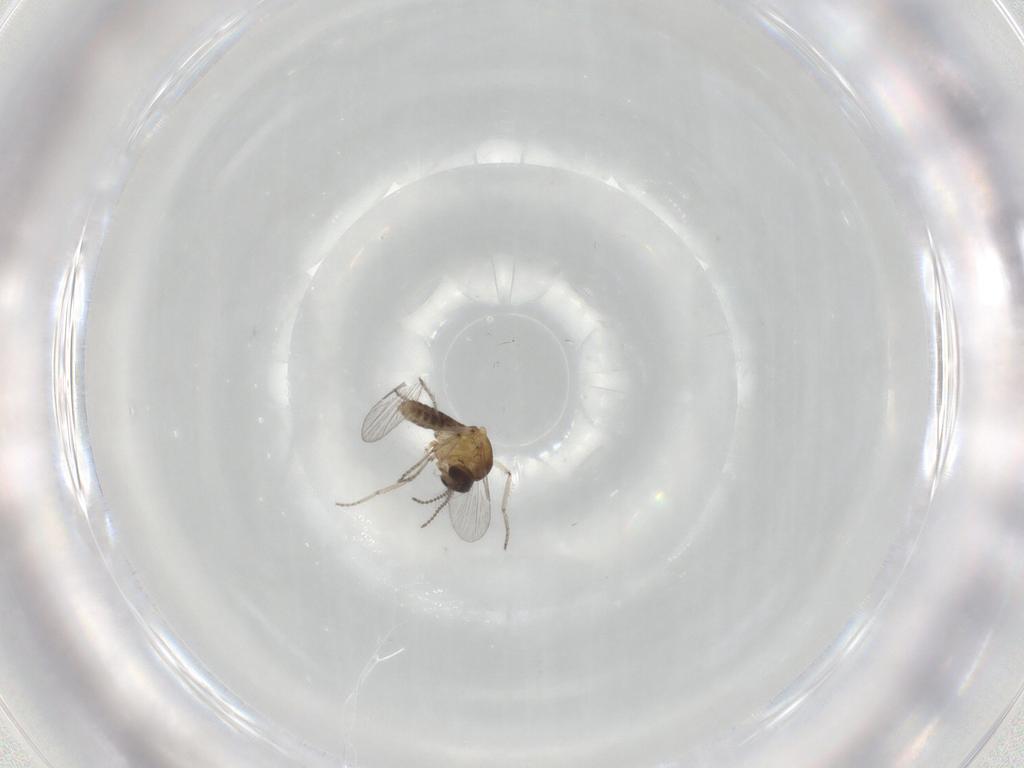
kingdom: Animalia
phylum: Arthropoda
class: Insecta
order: Diptera
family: Ceratopogonidae
